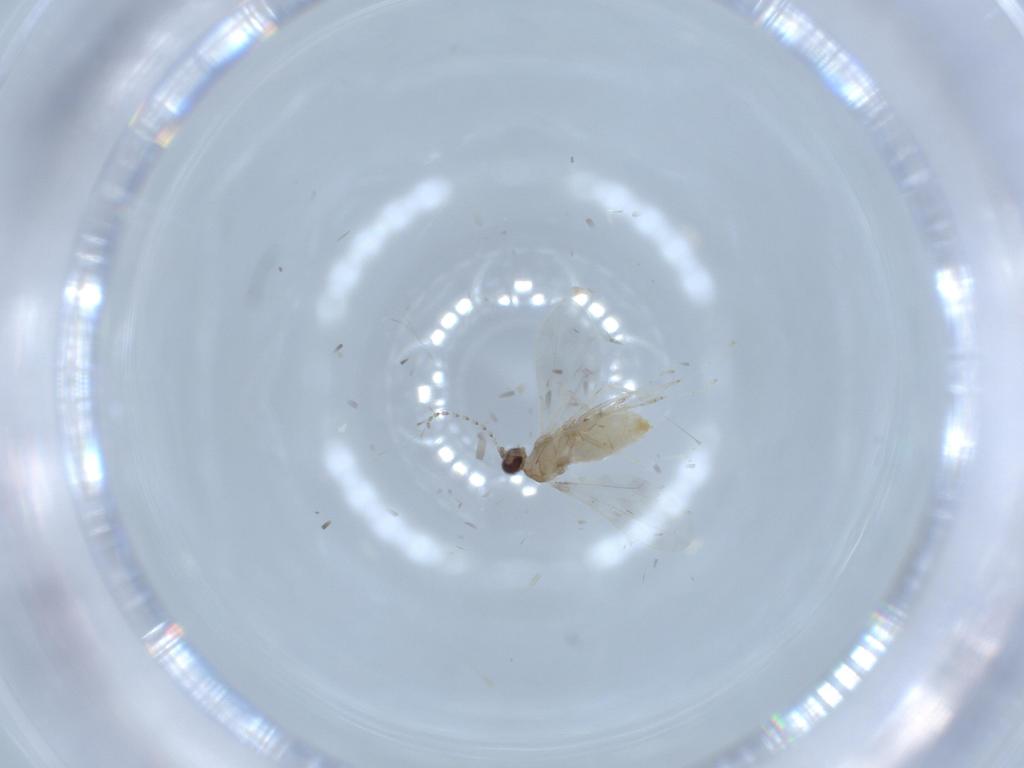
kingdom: Animalia
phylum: Arthropoda
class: Insecta
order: Diptera
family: Cecidomyiidae
